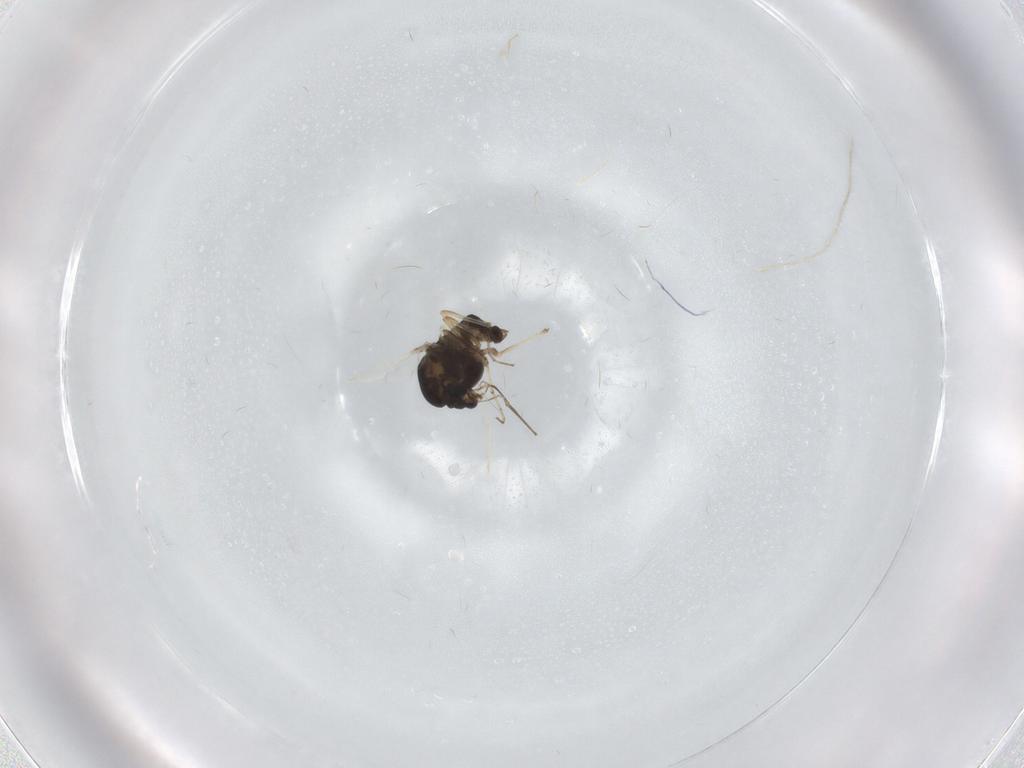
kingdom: Animalia
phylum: Arthropoda
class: Insecta
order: Diptera
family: Chironomidae
